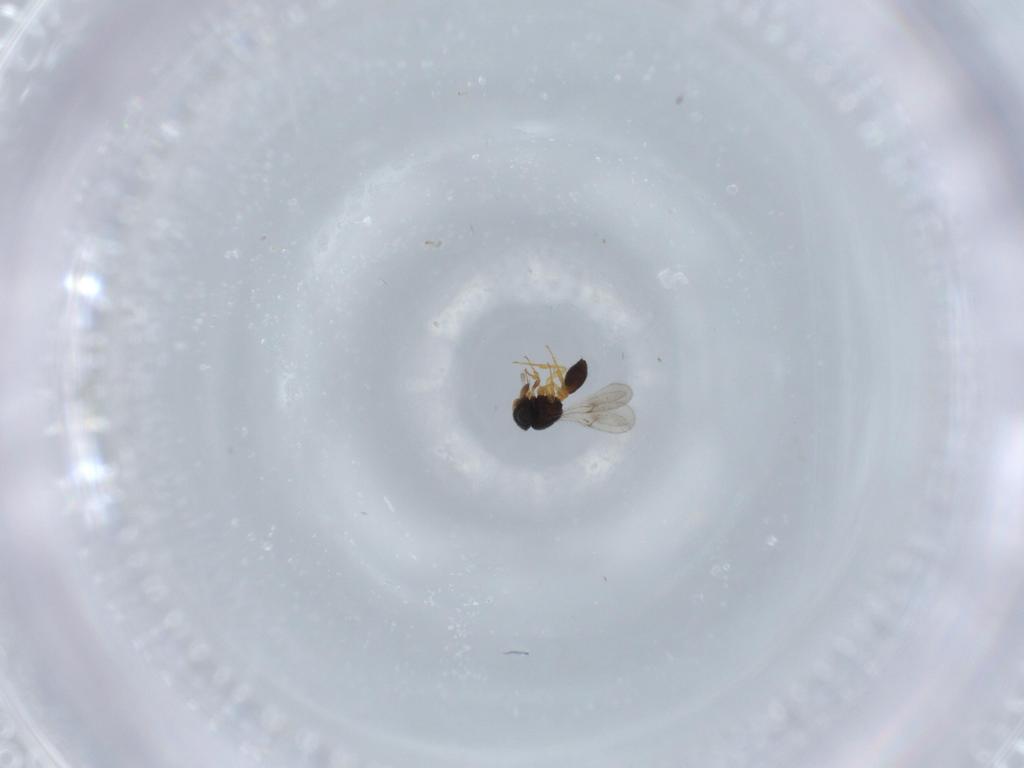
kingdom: Animalia
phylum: Arthropoda
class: Insecta
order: Hymenoptera
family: Scelionidae
